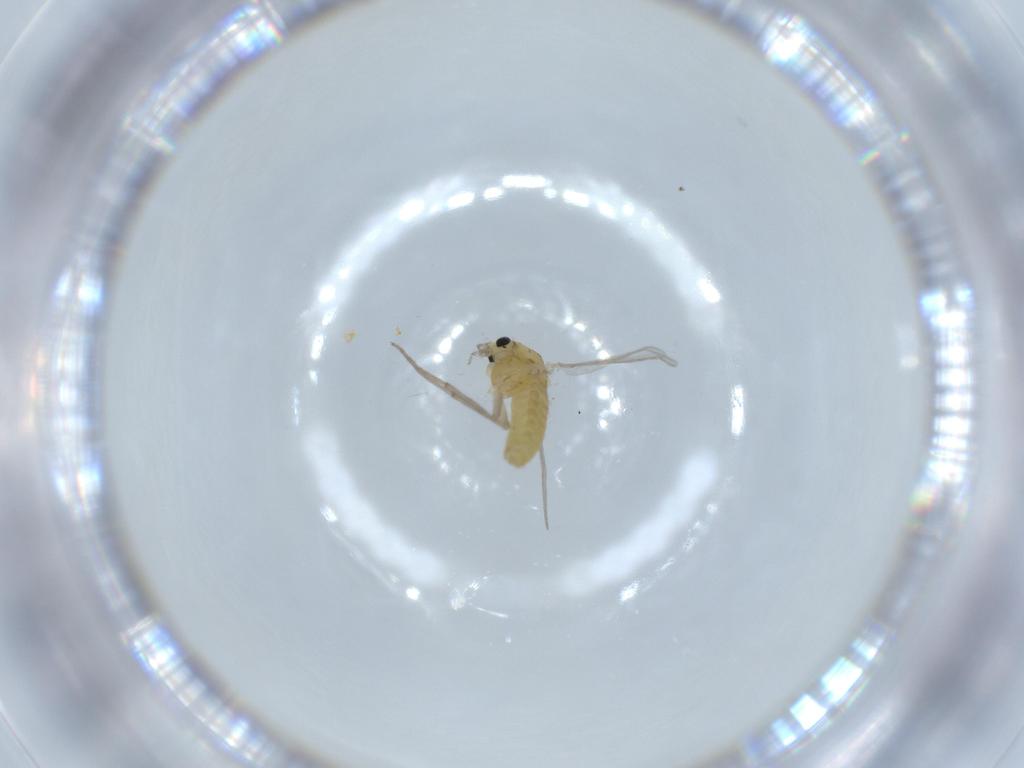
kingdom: Animalia
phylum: Arthropoda
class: Insecta
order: Diptera
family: Chironomidae
